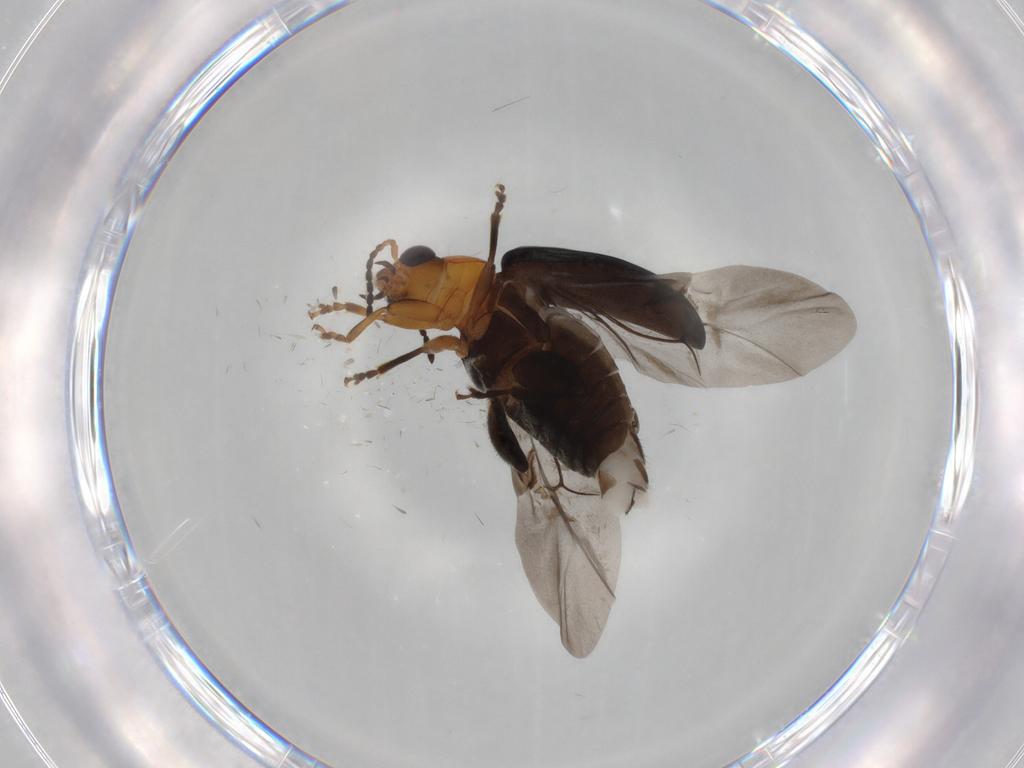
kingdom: Animalia
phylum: Arthropoda
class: Insecta
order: Coleoptera
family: Chrysomelidae
